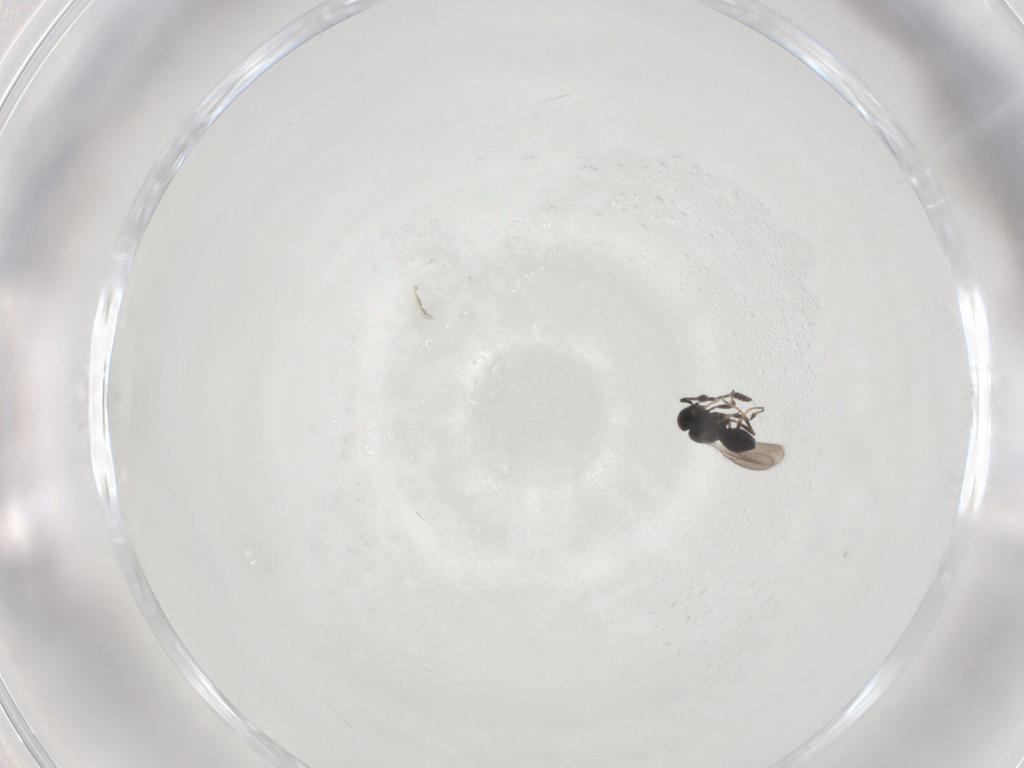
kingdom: Animalia
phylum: Arthropoda
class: Insecta
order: Hymenoptera
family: Scelionidae
